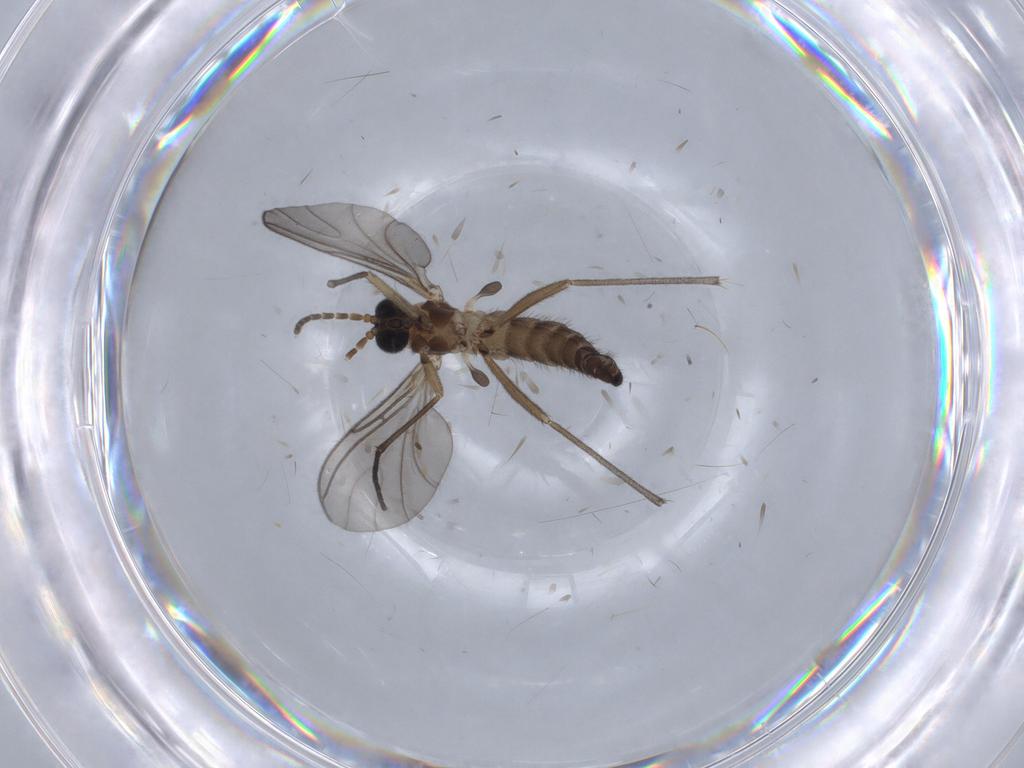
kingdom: Animalia
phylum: Arthropoda
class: Insecta
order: Diptera
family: Sciaridae
